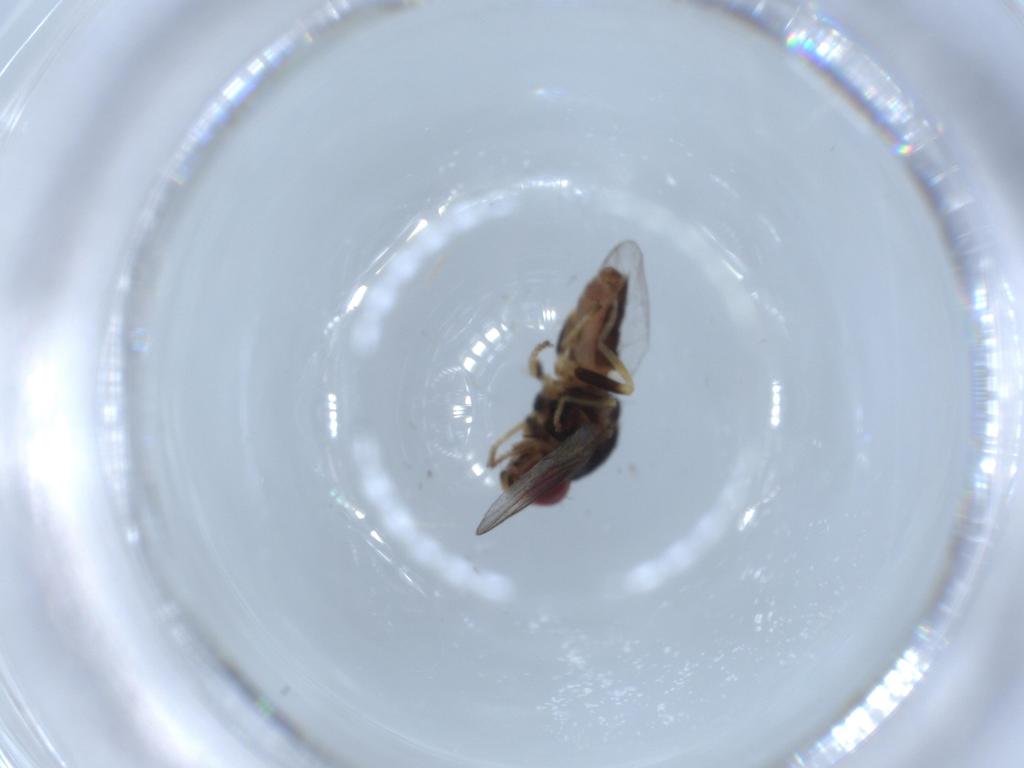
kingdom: Animalia
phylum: Arthropoda
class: Insecta
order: Diptera
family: Chloropidae
